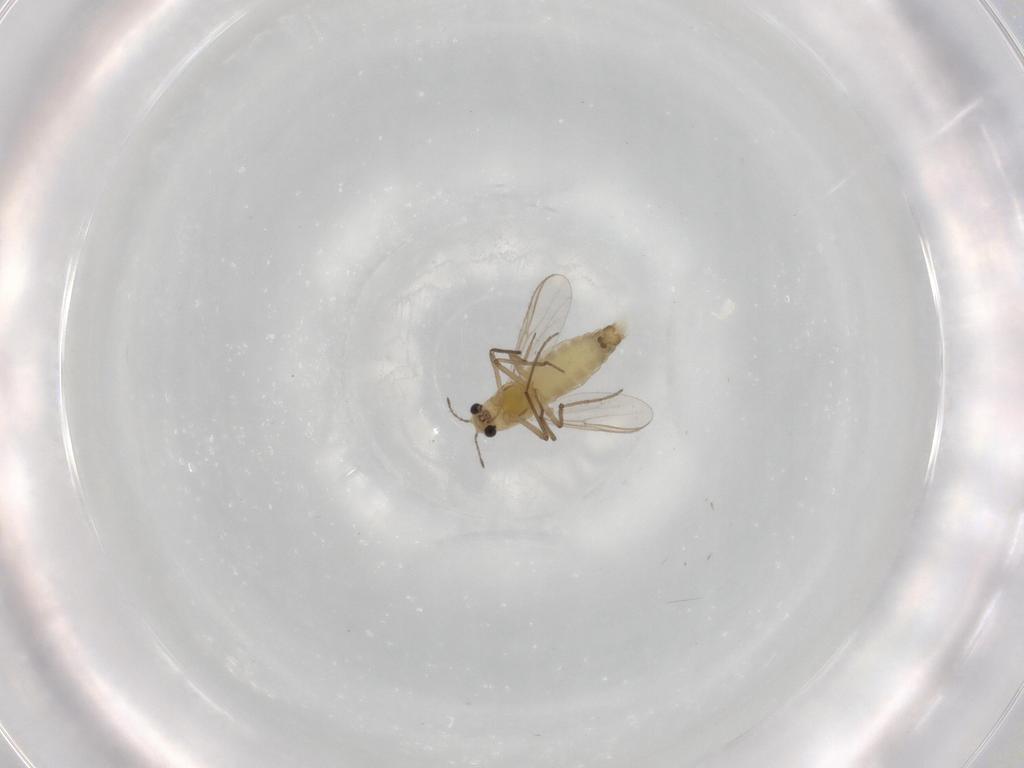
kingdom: Animalia
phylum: Arthropoda
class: Insecta
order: Diptera
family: Chironomidae
